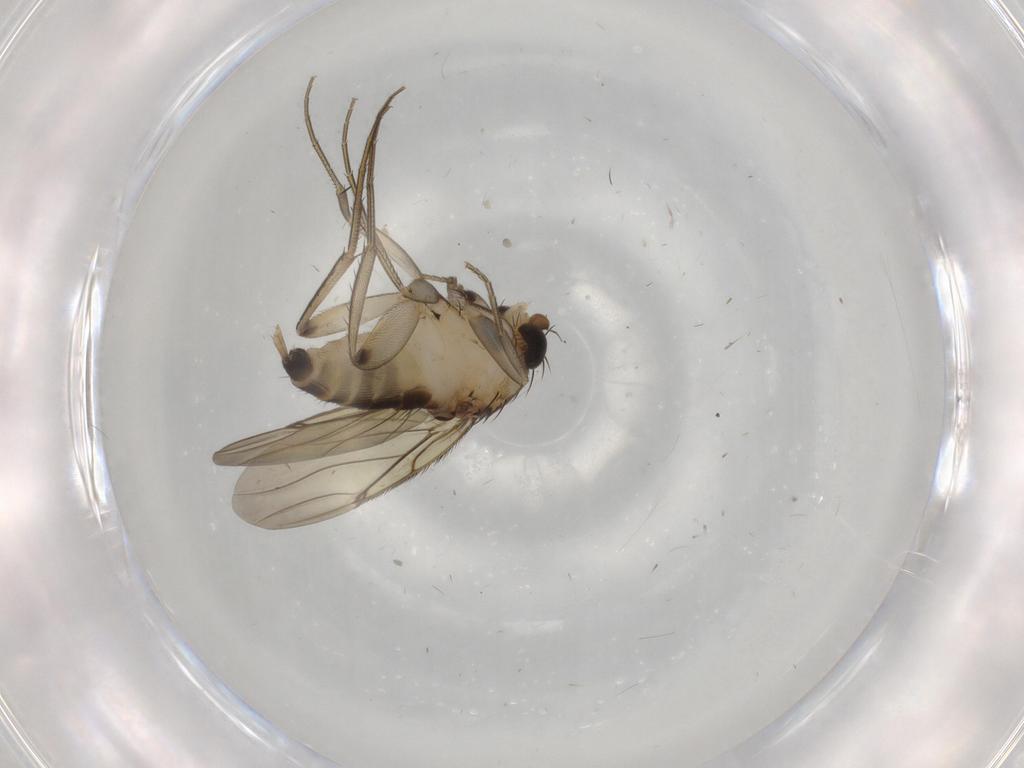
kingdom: Animalia
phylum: Arthropoda
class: Insecta
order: Diptera
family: Phoridae
